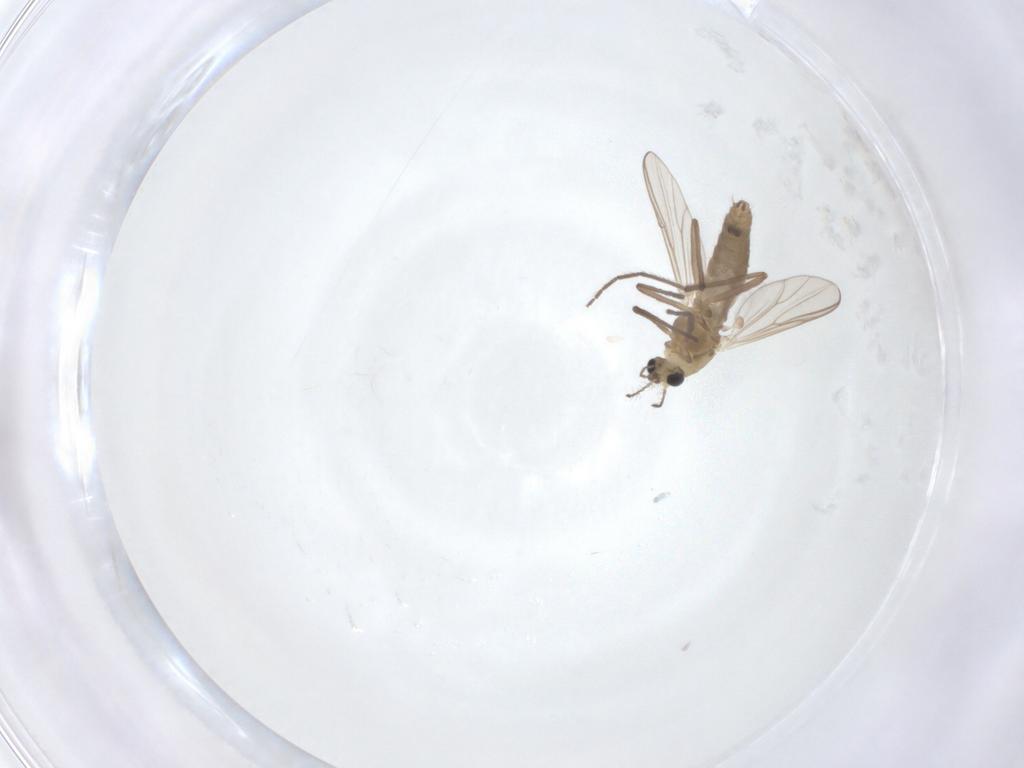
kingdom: Animalia
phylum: Arthropoda
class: Insecta
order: Diptera
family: Chironomidae
